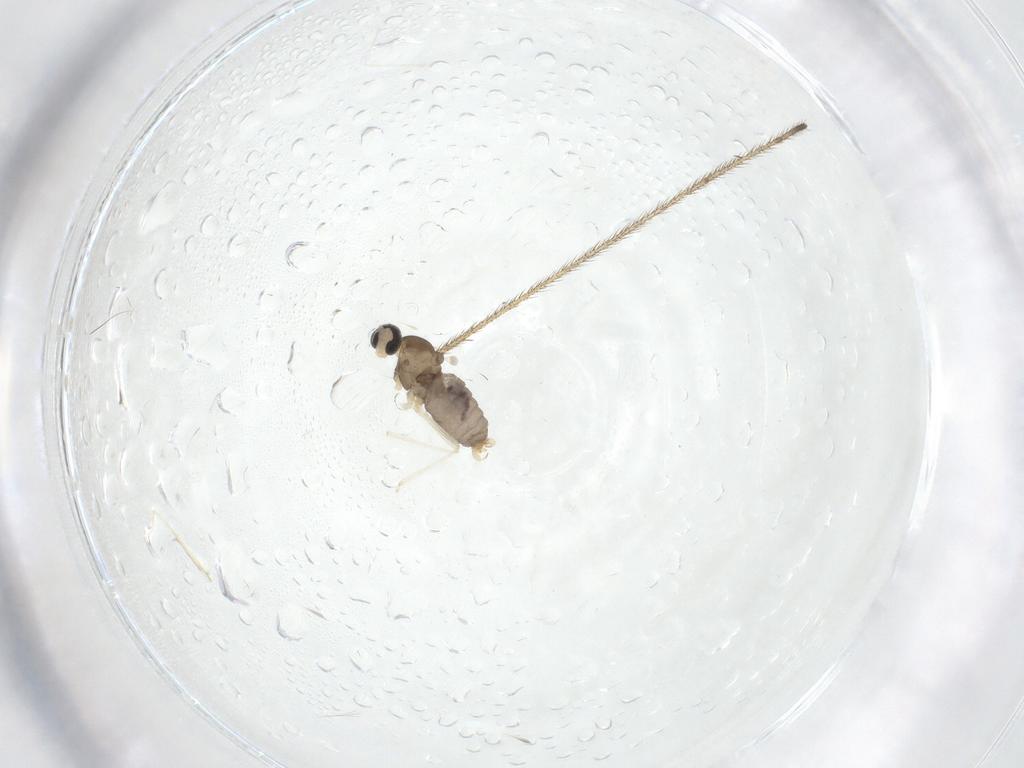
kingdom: Animalia
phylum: Arthropoda
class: Insecta
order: Diptera
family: Cecidomyiidae
